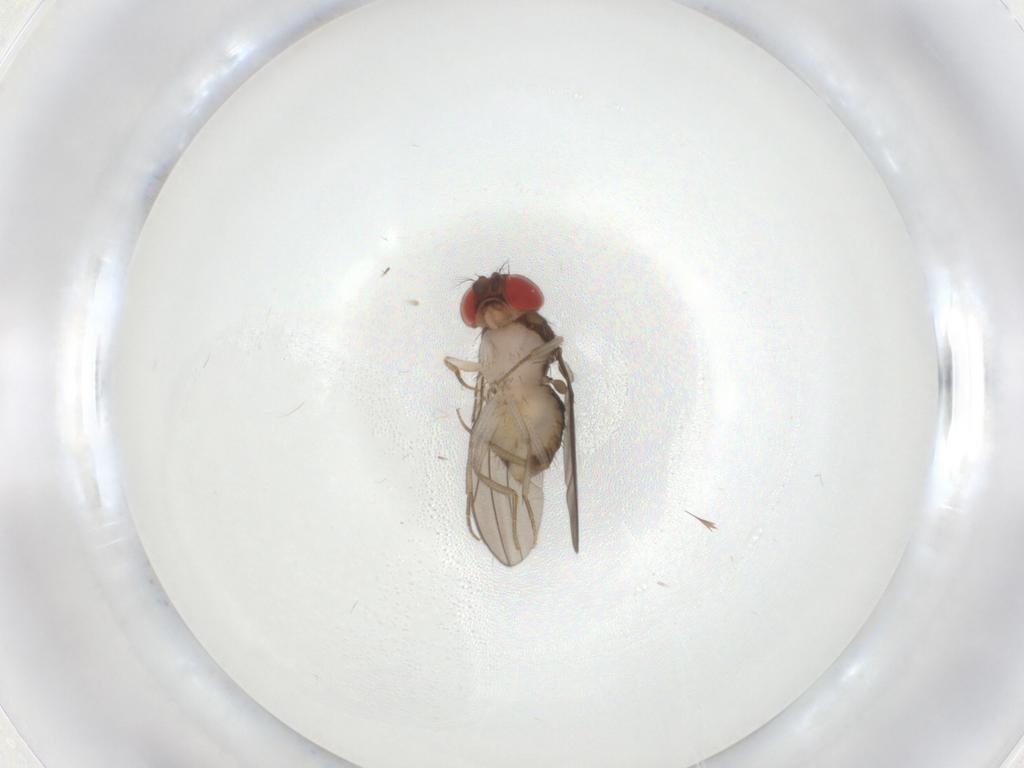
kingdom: Animalia
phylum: Arthropoda
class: Insecta
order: Diptera
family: Drosophilidae
